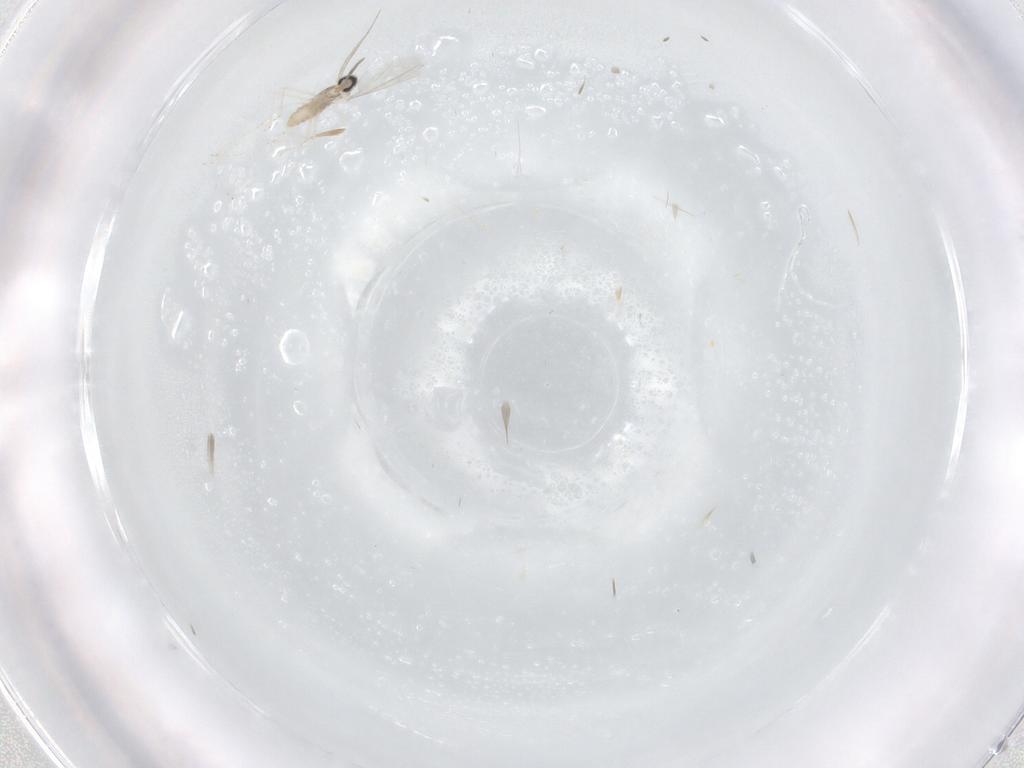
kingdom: Animalia
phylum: Arthropoda
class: Insecta
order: Diptera
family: Cecidomyiidae
